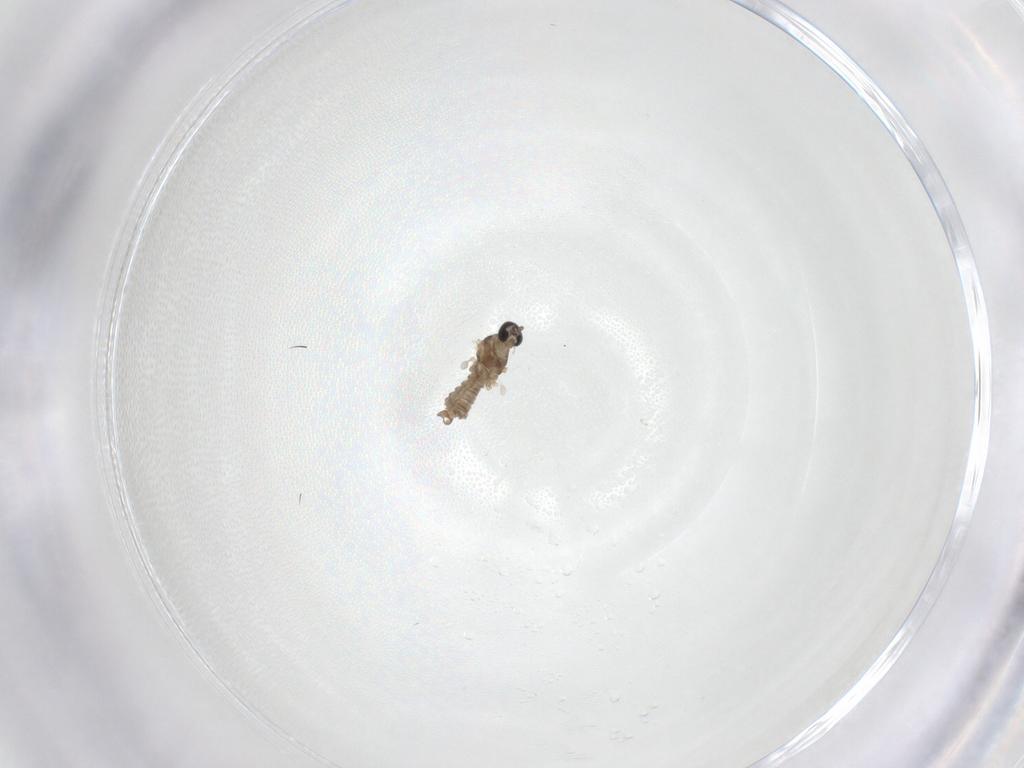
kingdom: Animalia
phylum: Arthropoda
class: Insecta
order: Diptera
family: Cecidomyiidae
